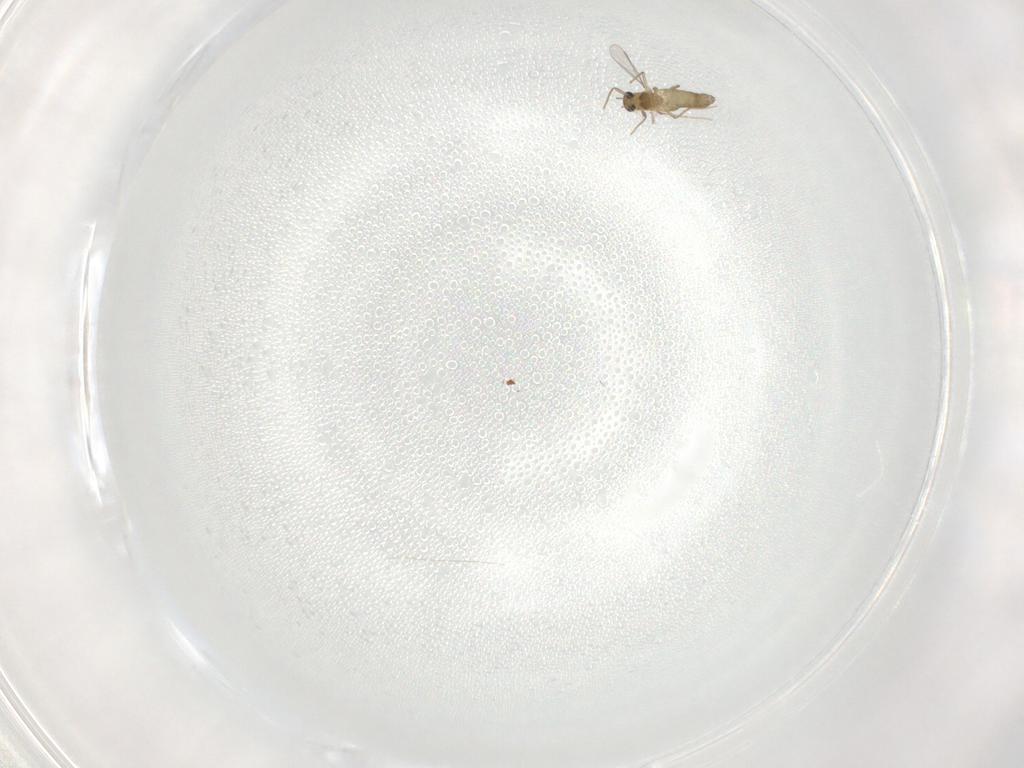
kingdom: Animalia
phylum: Arthropoda
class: Insecta
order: Diptera
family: Chironomidae
